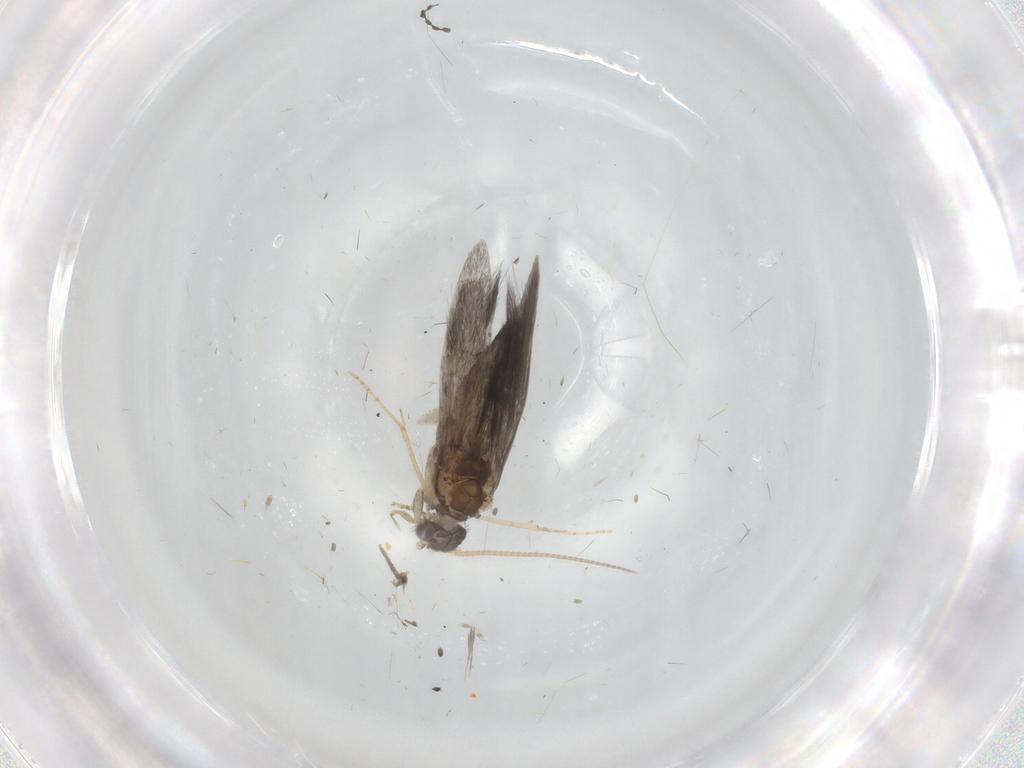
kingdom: Animalia
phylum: Arthropoda
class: Insecta
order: Trichoptera
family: Hydroptilidae
